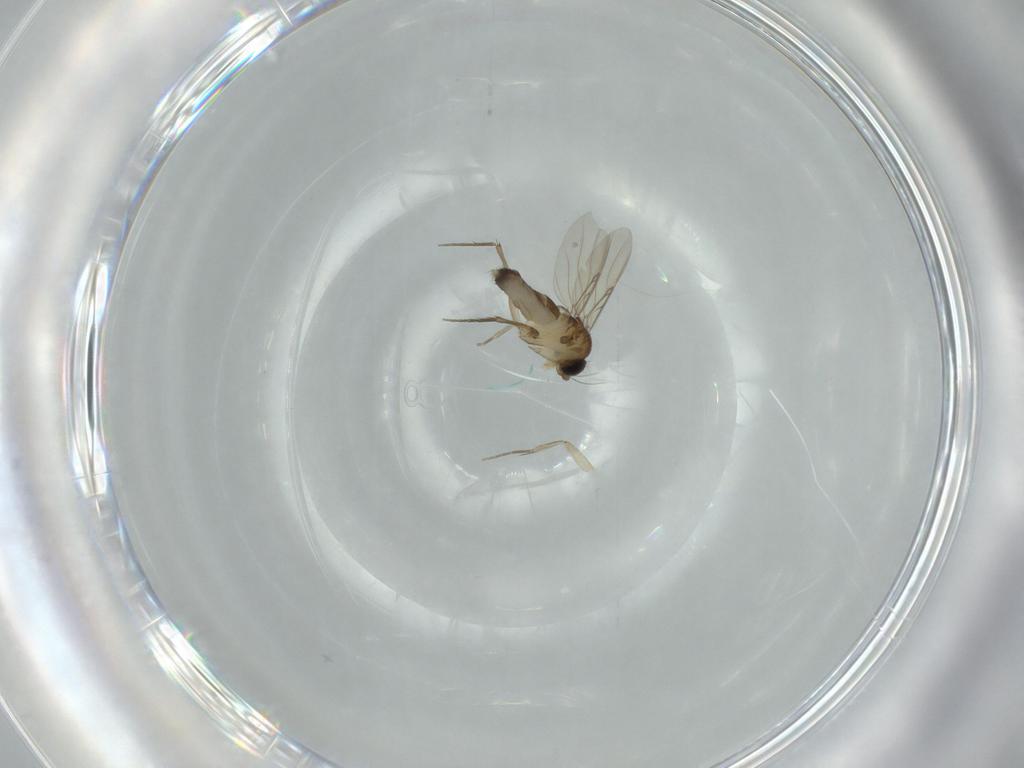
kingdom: Animalia
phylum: Arthropoda
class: Insecta
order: Diptera
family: Phoridae
